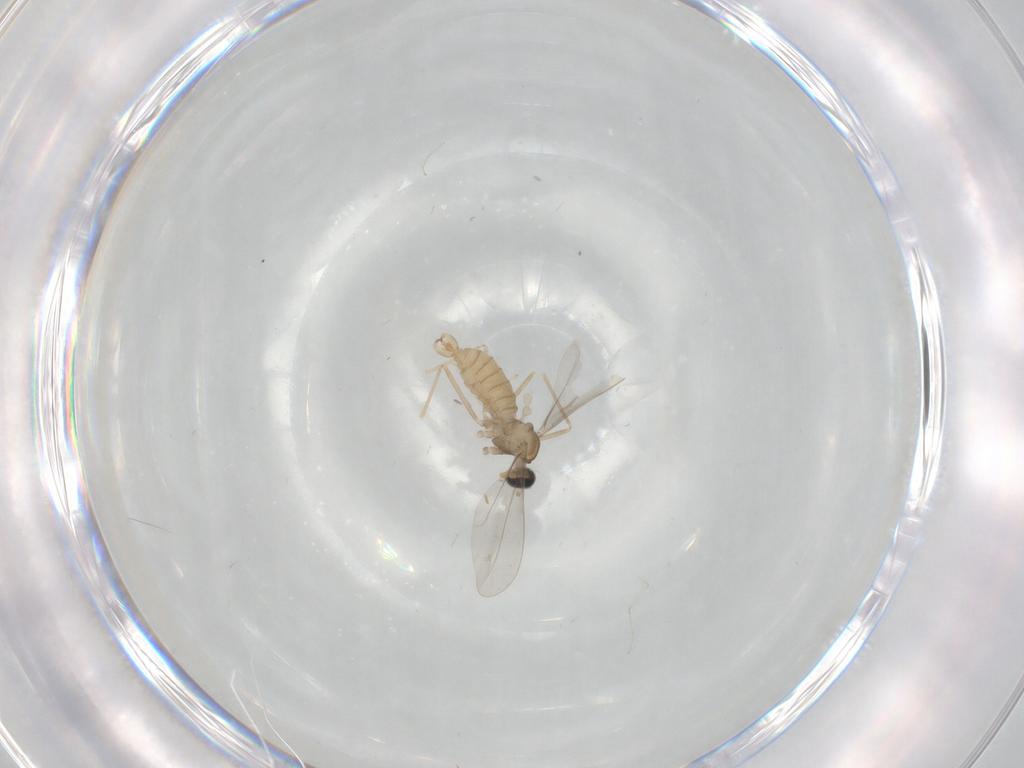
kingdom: Animalia
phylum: Arthropoda
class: Insecta
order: Diptera
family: Cecidomyiidae
